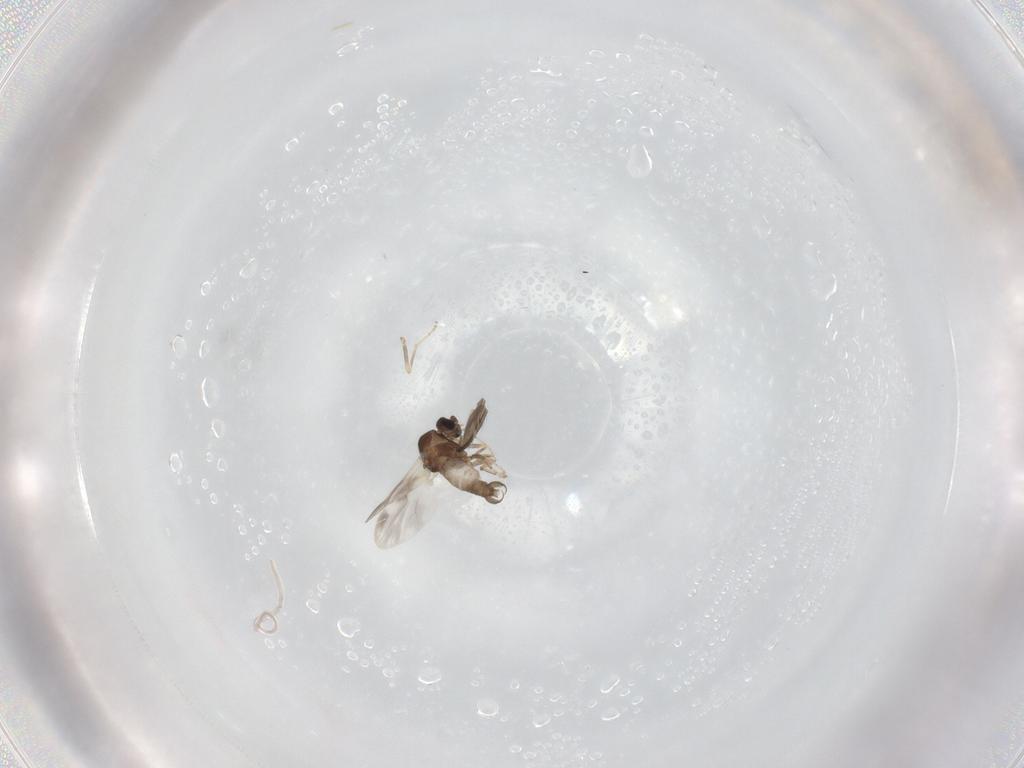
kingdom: Animalia
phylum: Arthropoda
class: Insecta
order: Diptera
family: Sciaridae
